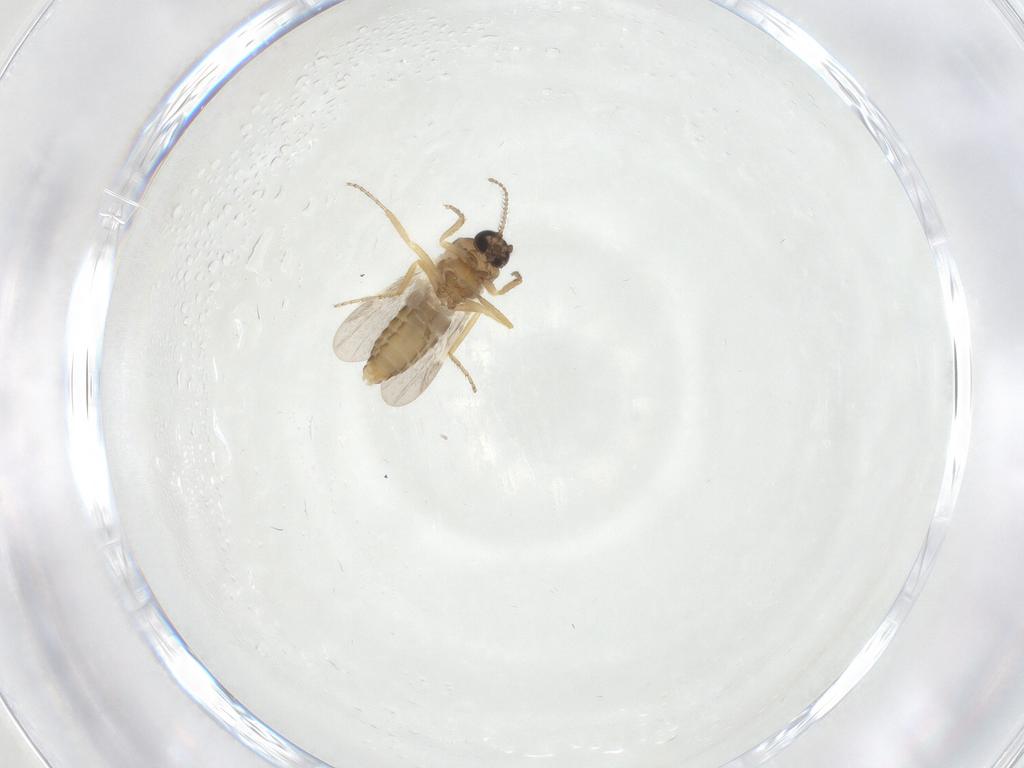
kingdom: Animalia
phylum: Arthropoda
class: Insecta
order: Diptera
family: Ceratopogonidae
